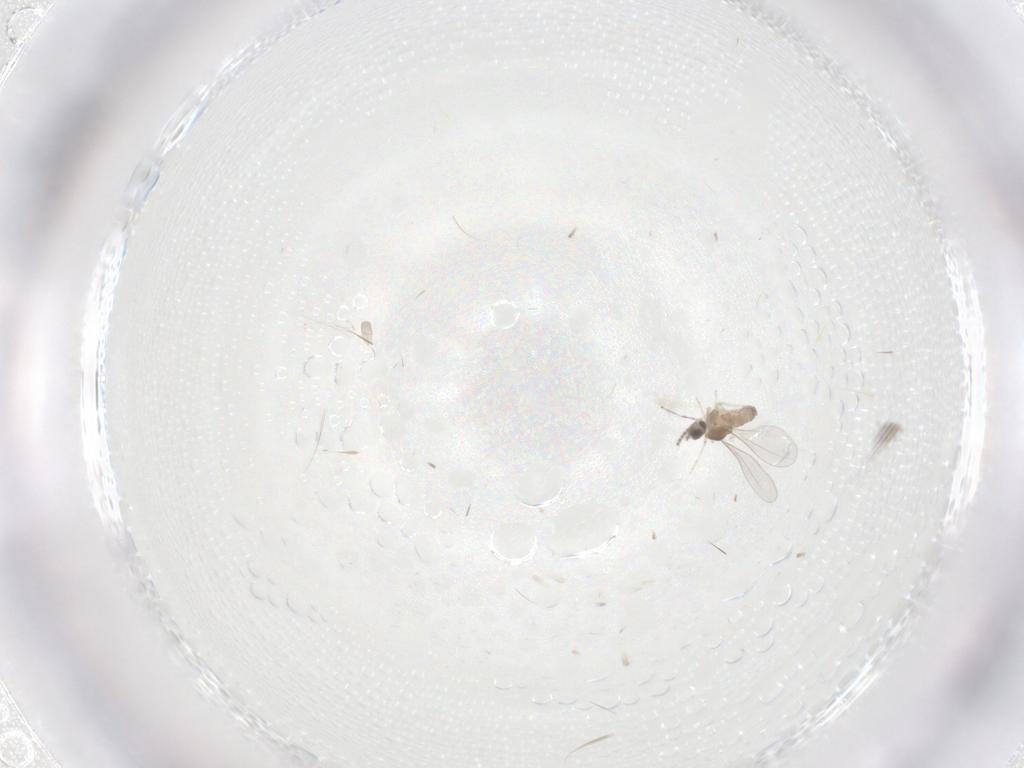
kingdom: Animalia
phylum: Arthropoda
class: Insecta
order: Diptera
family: Cecidomyiidae
